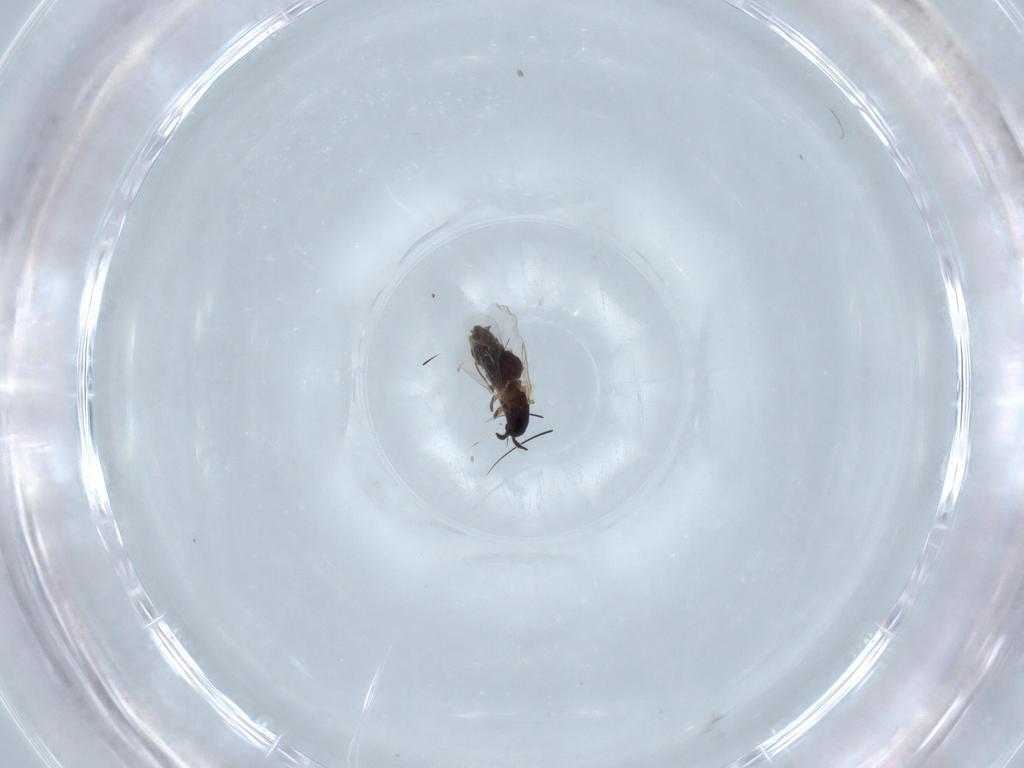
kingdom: Animalia
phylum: Arthropoda
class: Insecta
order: Diptera
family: Scatopsidae
